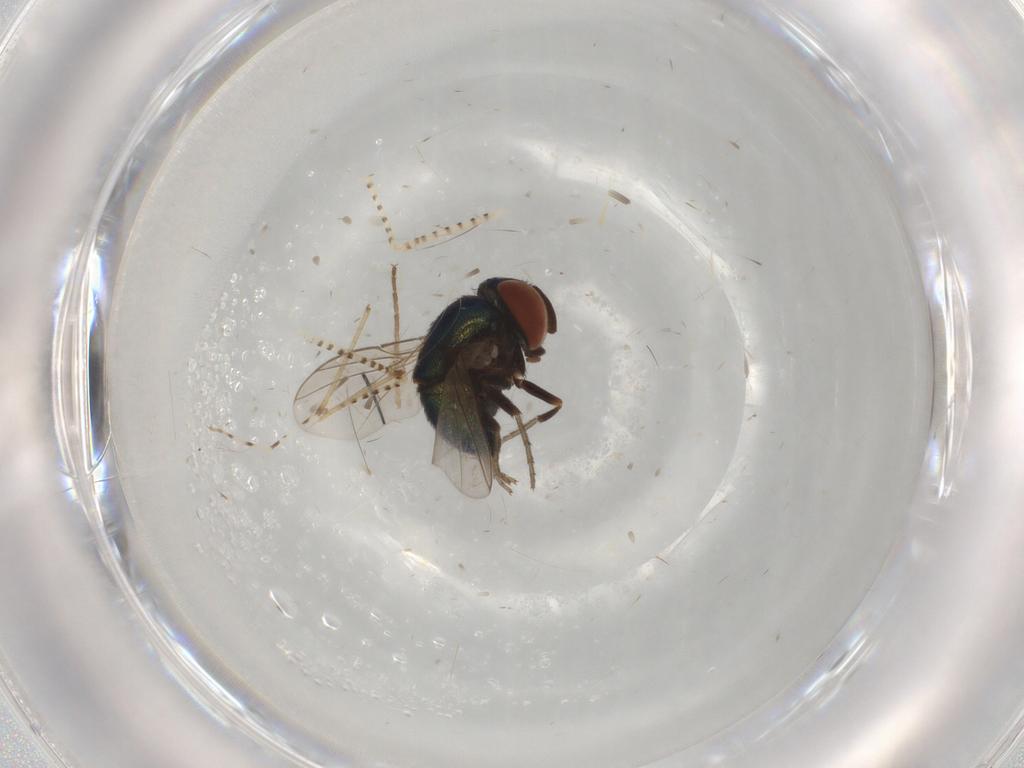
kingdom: Animalia
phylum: Arthropoda
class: Insecta
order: Diptera
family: Cryptochetidae
